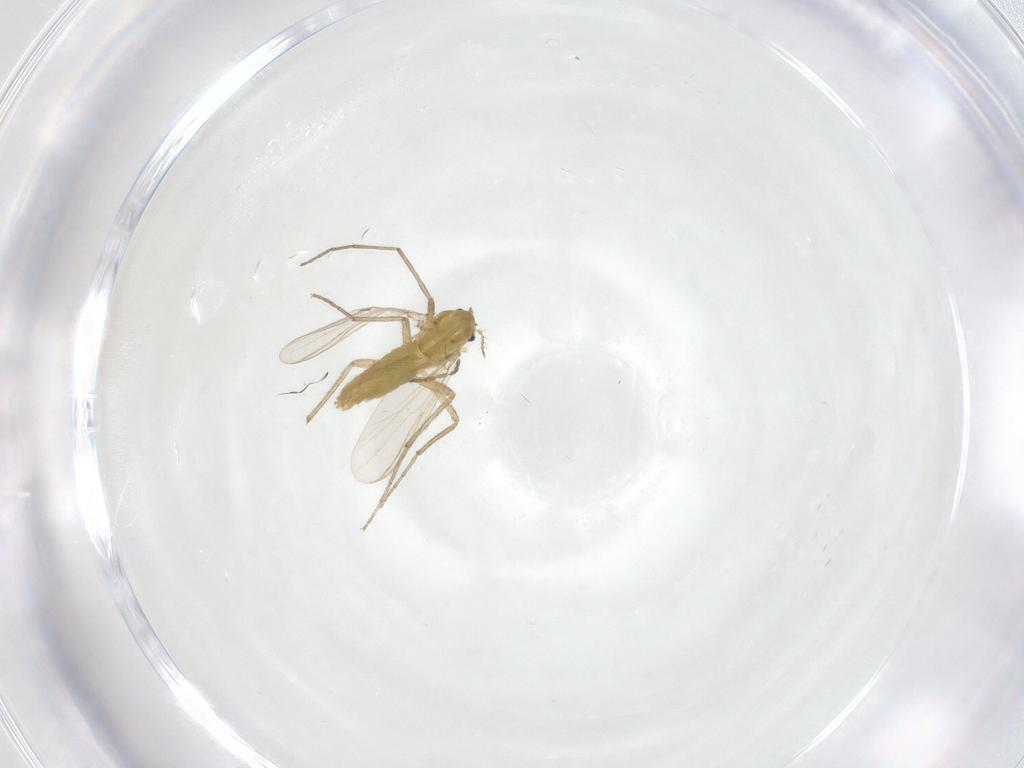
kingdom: Animalia
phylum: Arthropoda
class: Insecta
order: Diptera
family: Chironomidae
